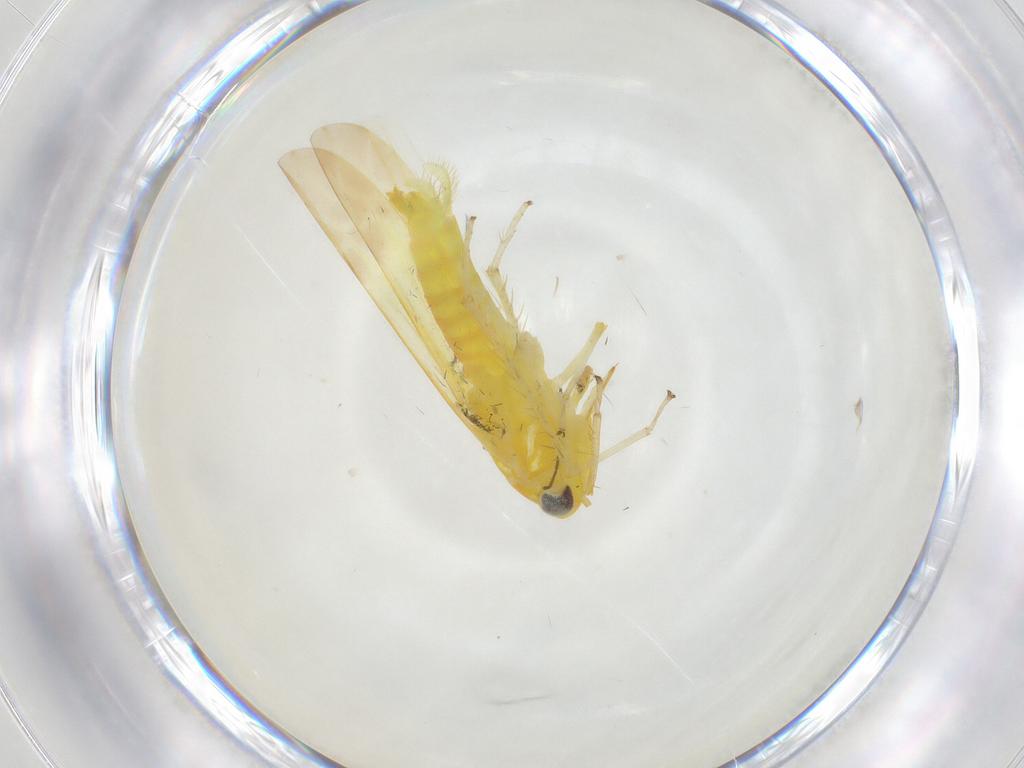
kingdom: Animalia
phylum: Arthropoda
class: Insecta
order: Hemiptera
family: Cicadellidae
